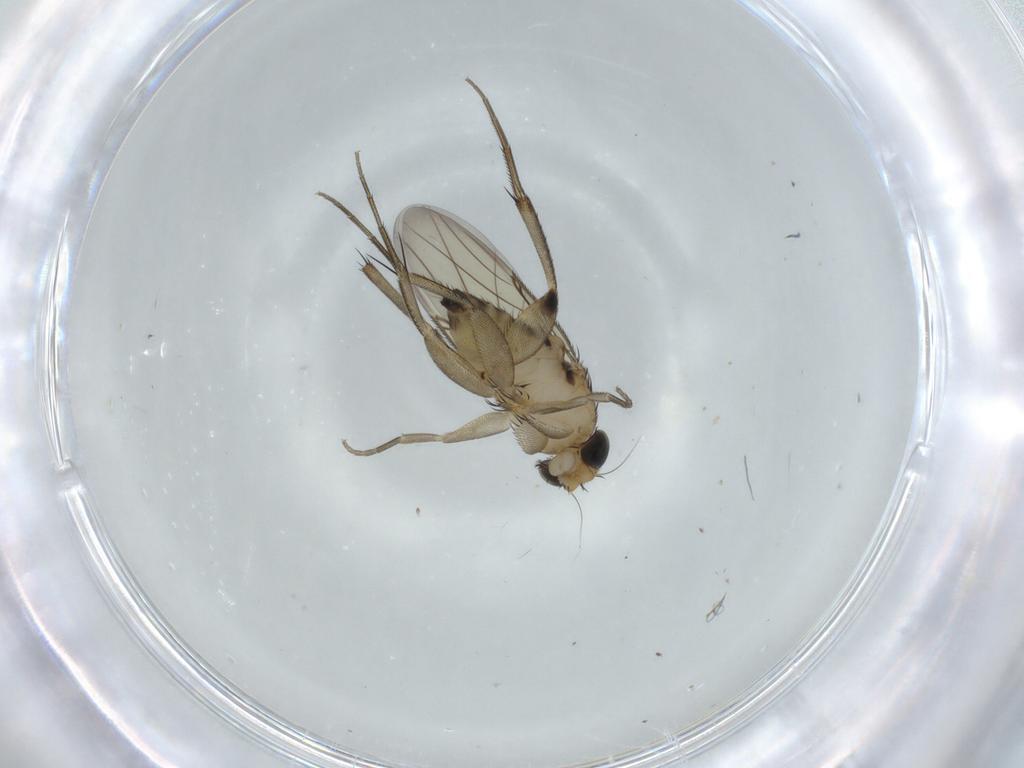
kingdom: Animalia
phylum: Arthropoda
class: Insecta
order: Diptera
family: Phoridae
